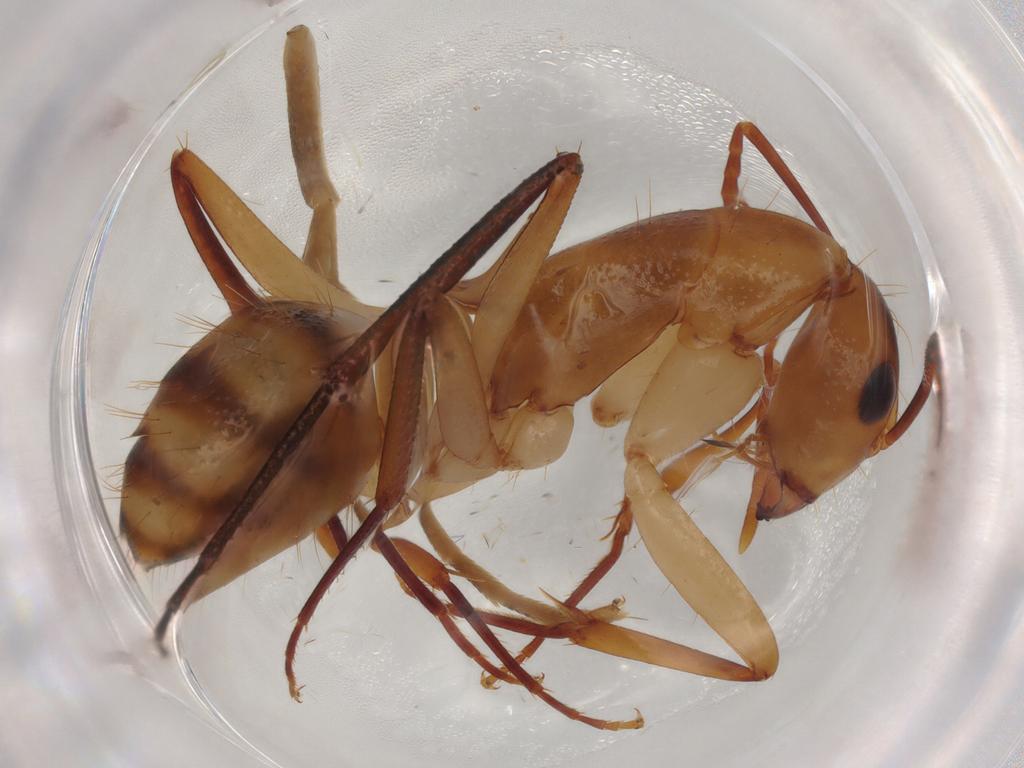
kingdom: Animalia
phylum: Arthropoda
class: Insecta
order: Hymenoptera
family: Formicidae
